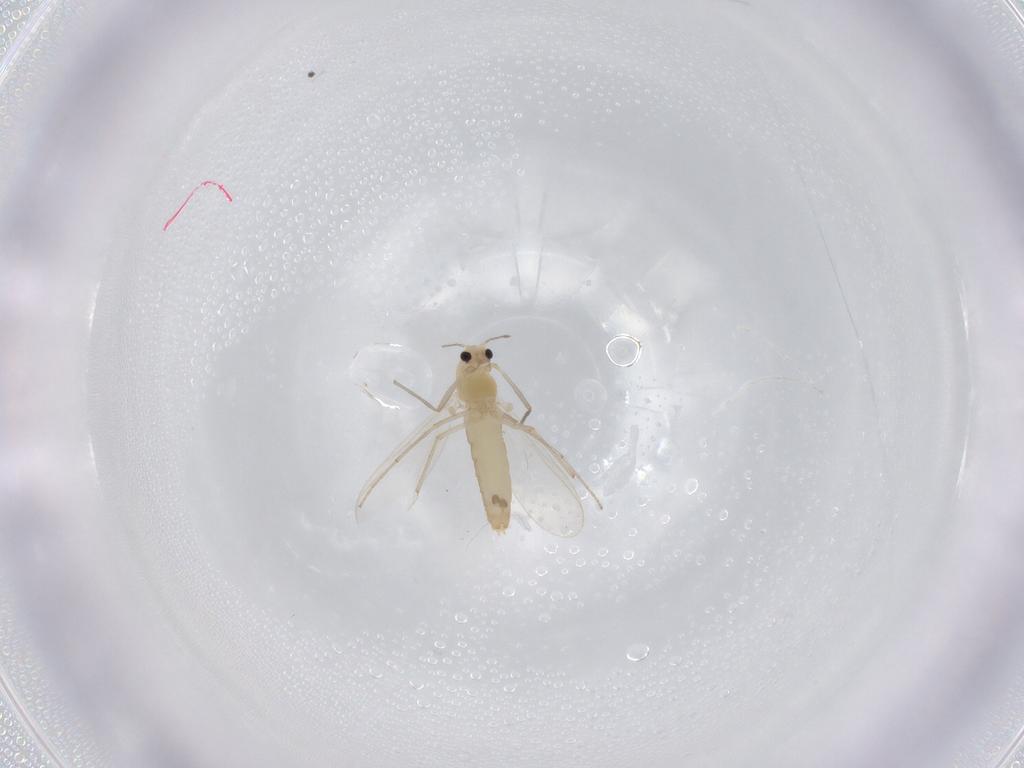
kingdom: Animalia
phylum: Arthropoda
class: Insecta
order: Diptera
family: Chironomidae
